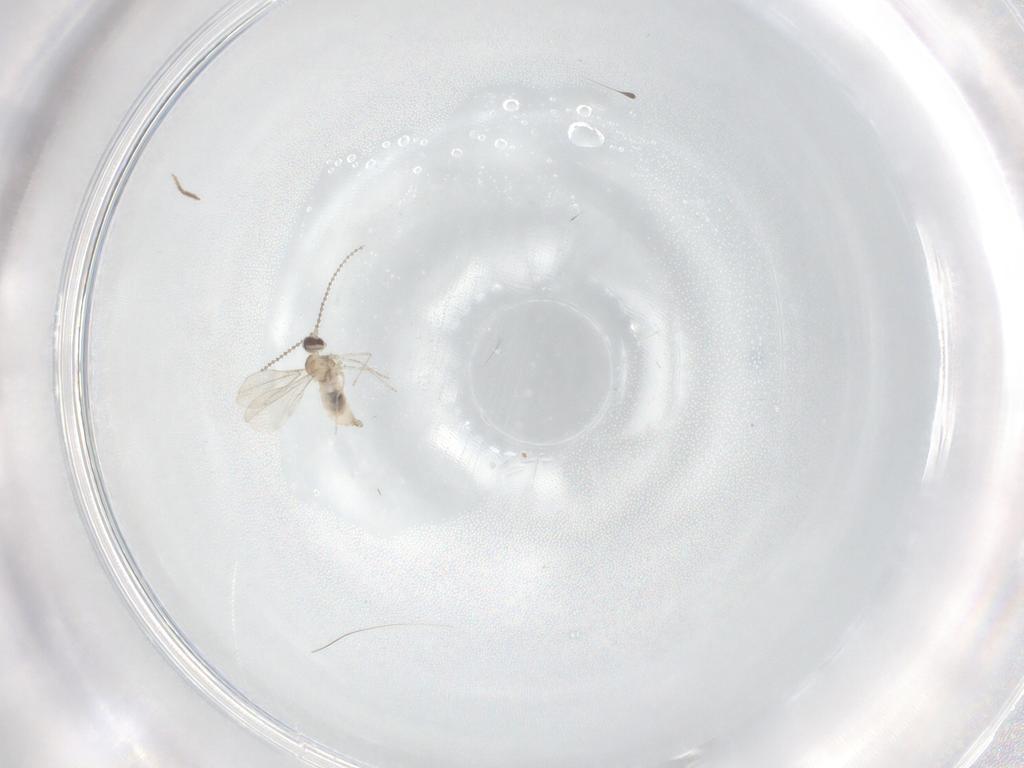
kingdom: Animalia
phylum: Arthropoda
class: Insecta
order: Diptera
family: Cecidomyiidae
